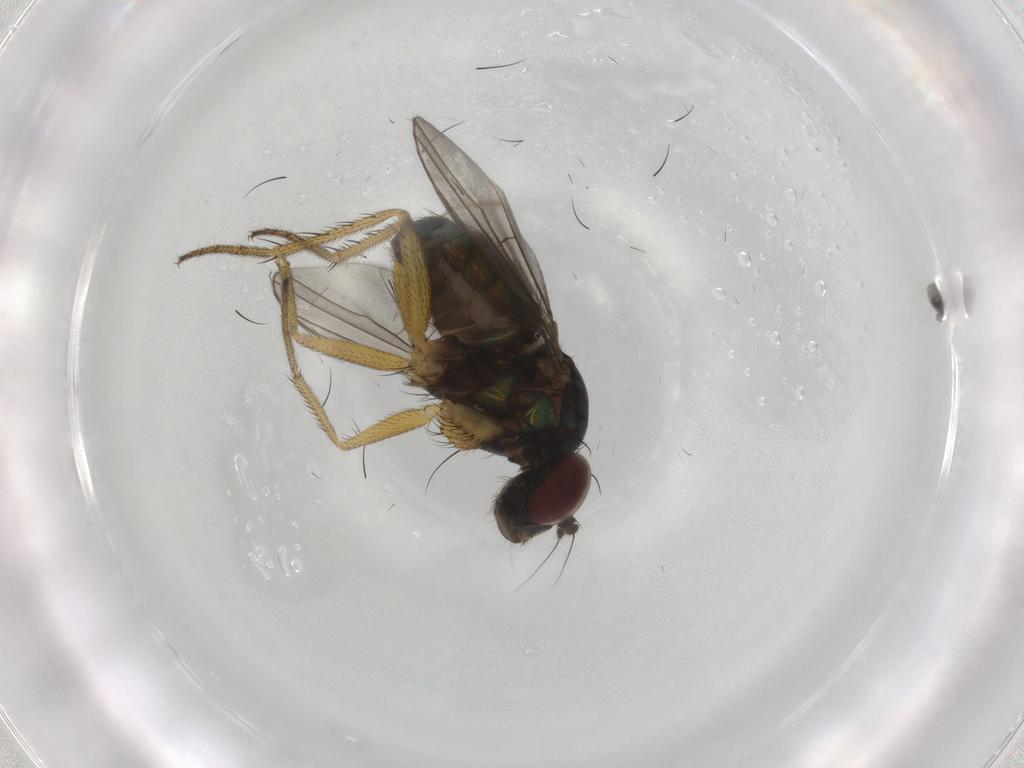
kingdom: Animalia
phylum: Arthropoda
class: Insecta
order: Diptera
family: Dolichopodidae
